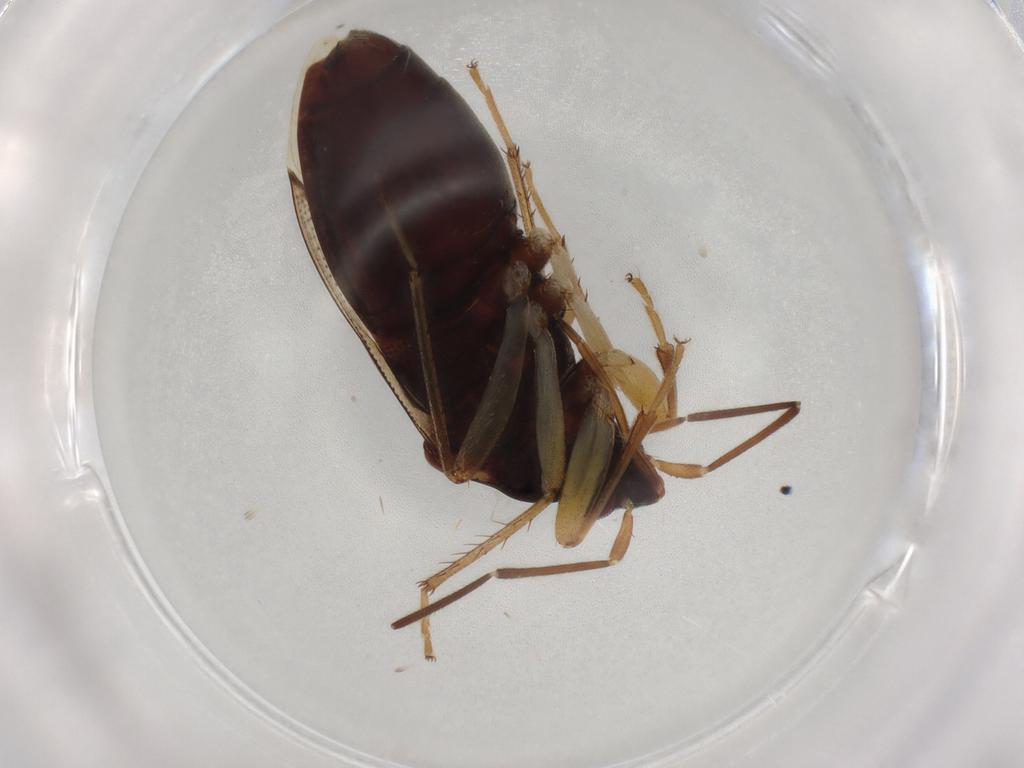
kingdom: Animalia
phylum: Arthropoda
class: Insecta
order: Hemiptera
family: Rhyparochromidae
